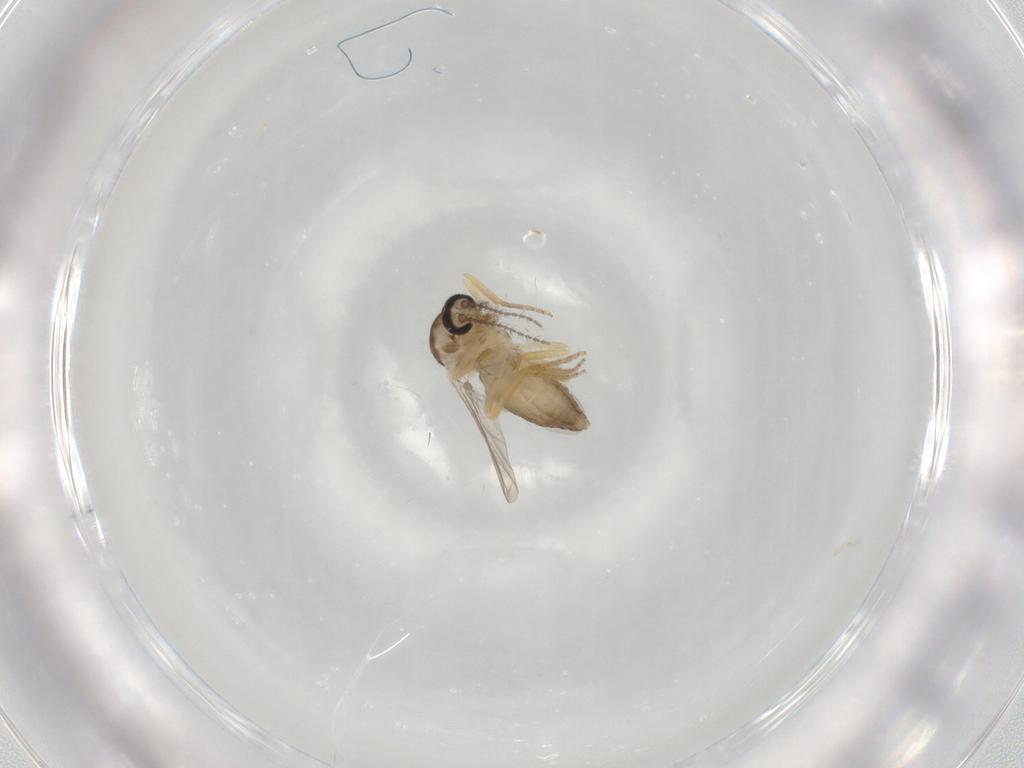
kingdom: Animalia
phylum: Arthropoda
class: Insecta
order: Diptera
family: Ceratopogonidae
